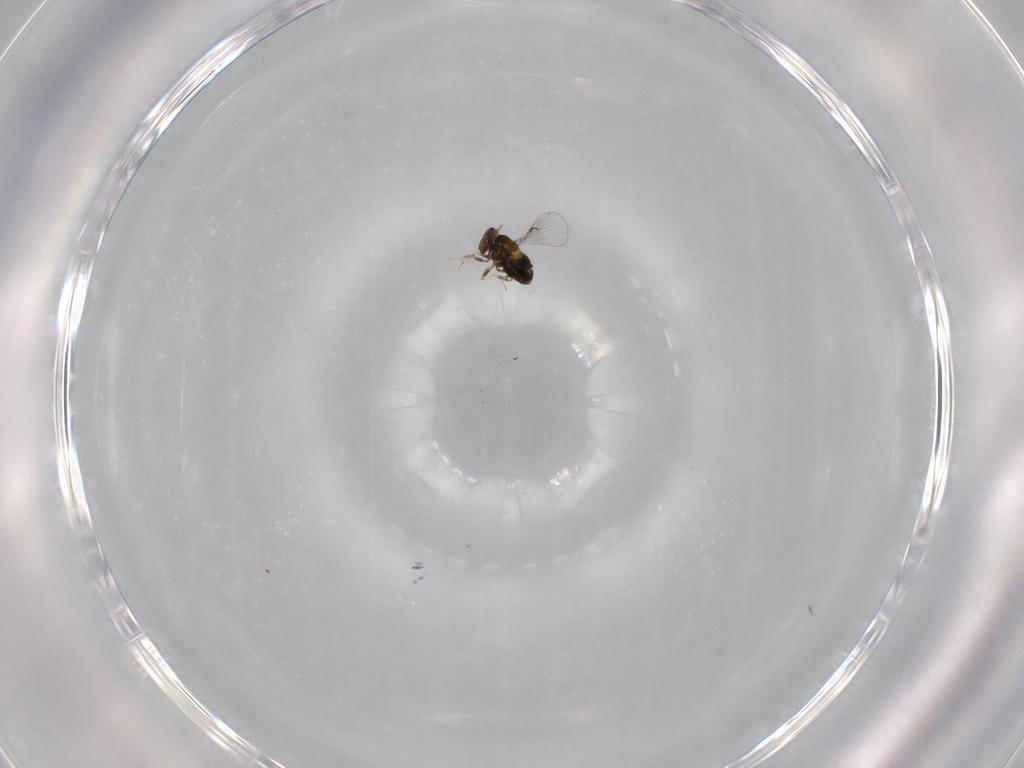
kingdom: Animalia
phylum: Arthropoda
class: Insecta
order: Hymenoptera
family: Trichogrammatidae
